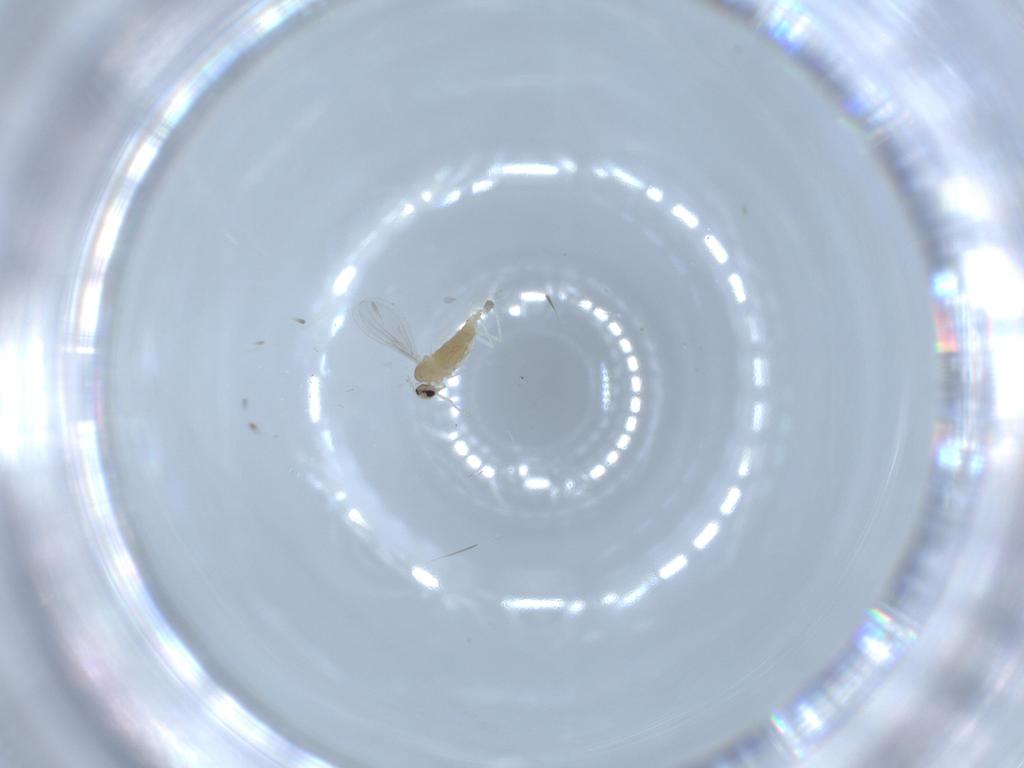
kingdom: Animalia
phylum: Arthropoda
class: Insecta
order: Diptera
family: Cecidomyiidae
